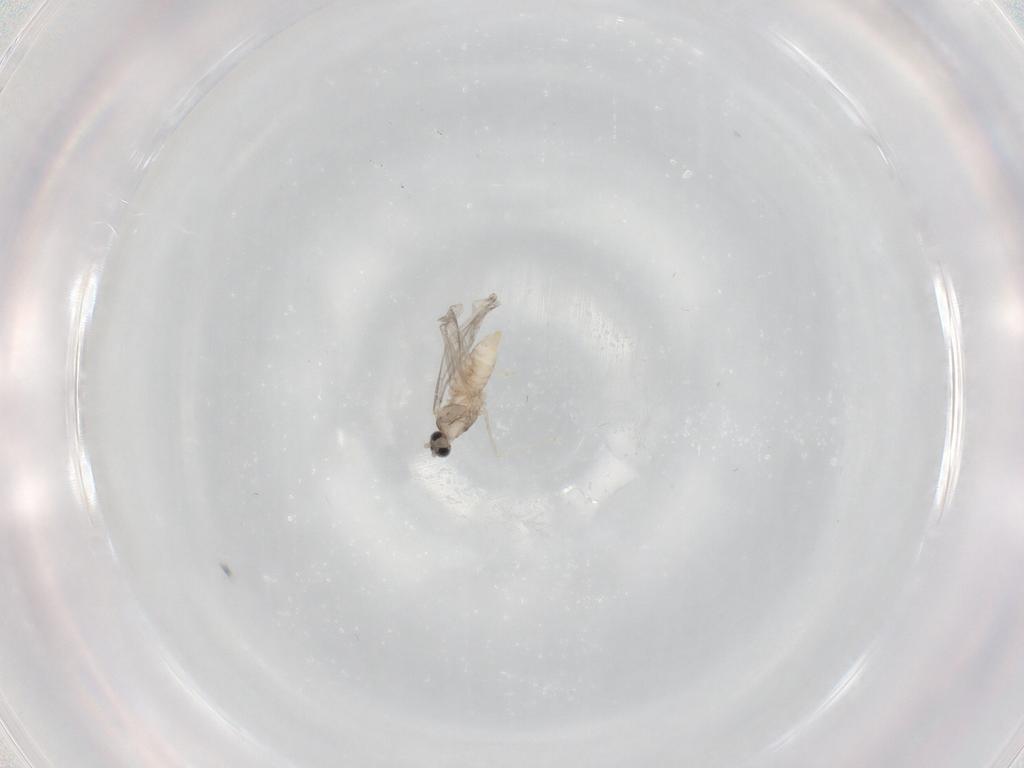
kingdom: Animalia
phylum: Arthropoda
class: Insecta
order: Diptera
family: Cecidomyiidae
